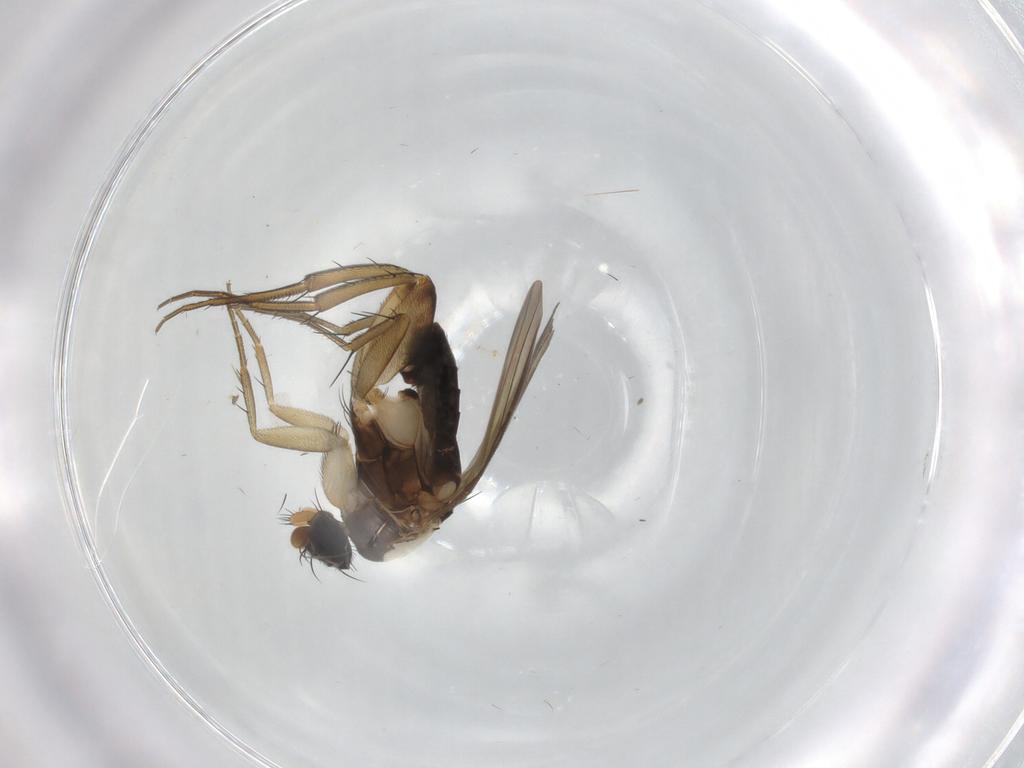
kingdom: Animalia
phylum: Arthropoda
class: Insecta
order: Diptera
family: Phoridae
